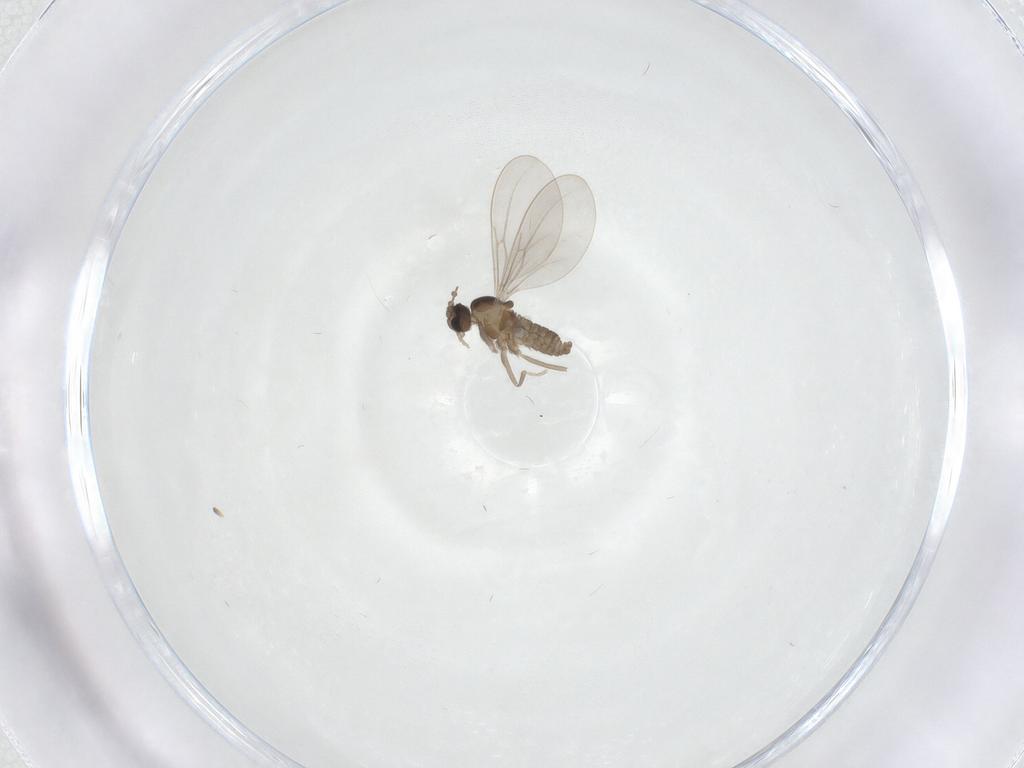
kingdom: Animalia
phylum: Arthropoda
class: Insecta
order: Diptera
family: Cecidomyiidae
